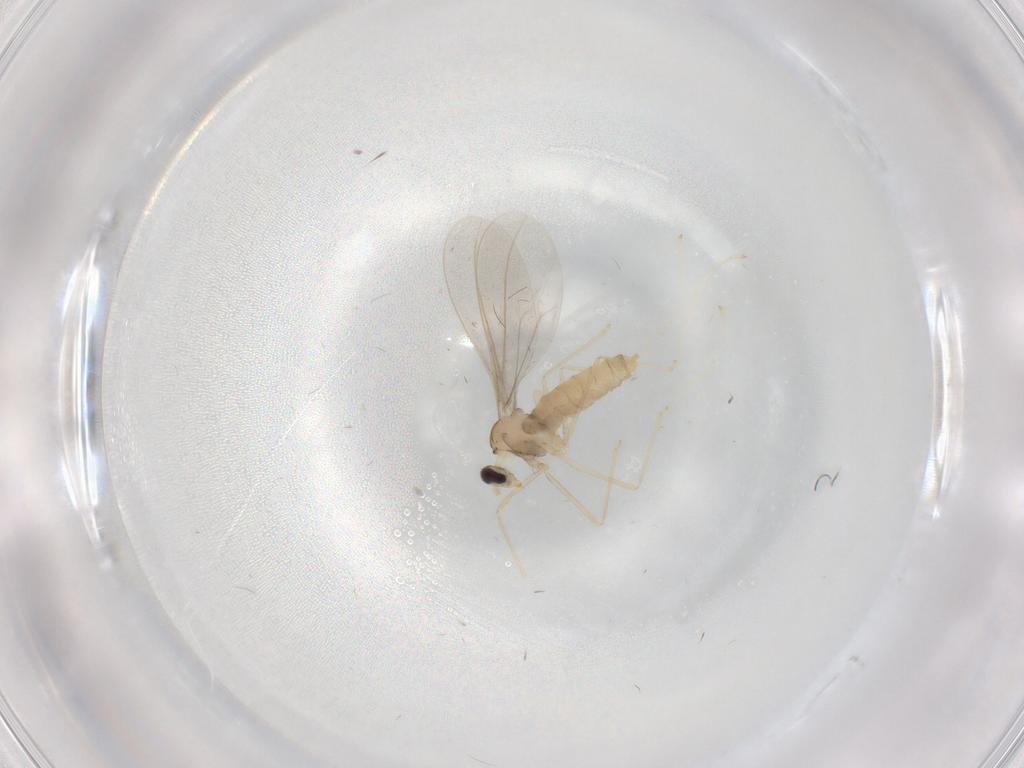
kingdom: Animalia
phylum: Arthropoda
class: Insecta
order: Diptera
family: Cecidomyiidae
